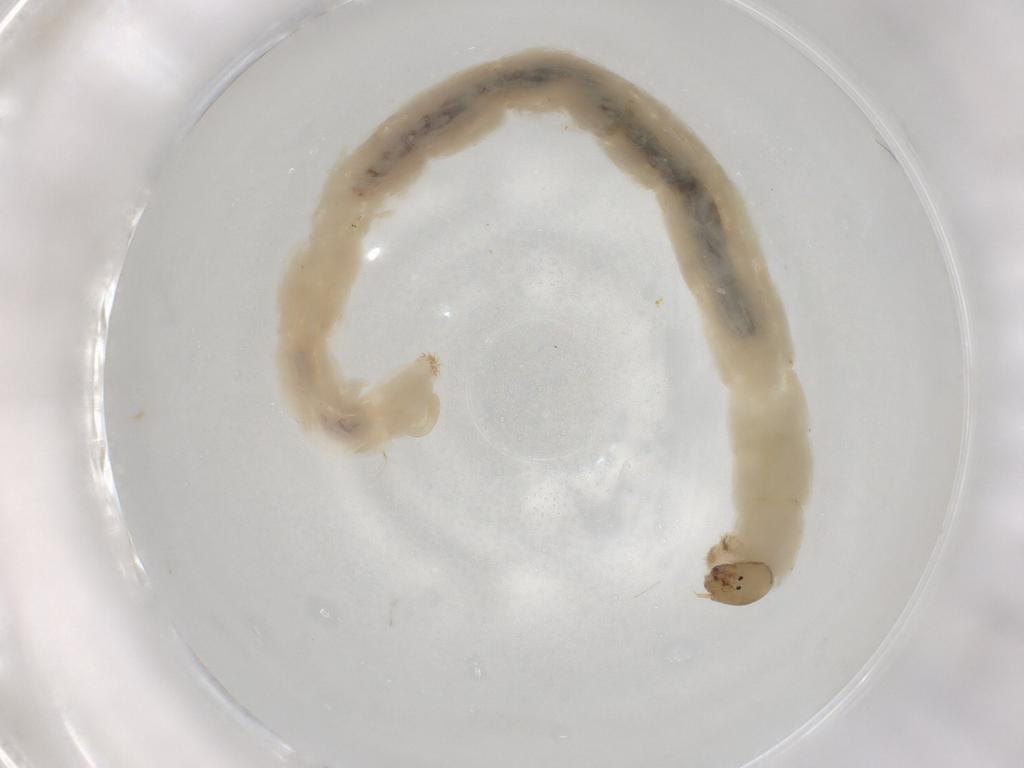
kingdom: Animalia
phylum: Arthropoda
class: Insecta
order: Diptera
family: Chironomidae
